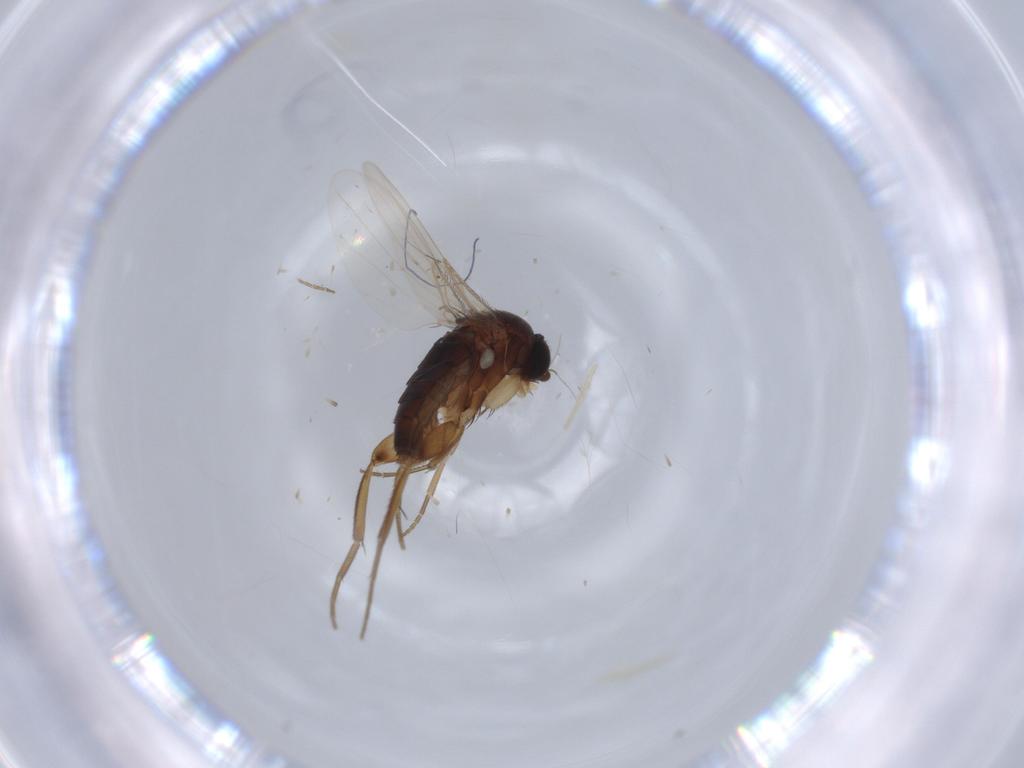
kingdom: Animalia
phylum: Arthropoda
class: Insecta
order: Diptera
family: Phoridae
